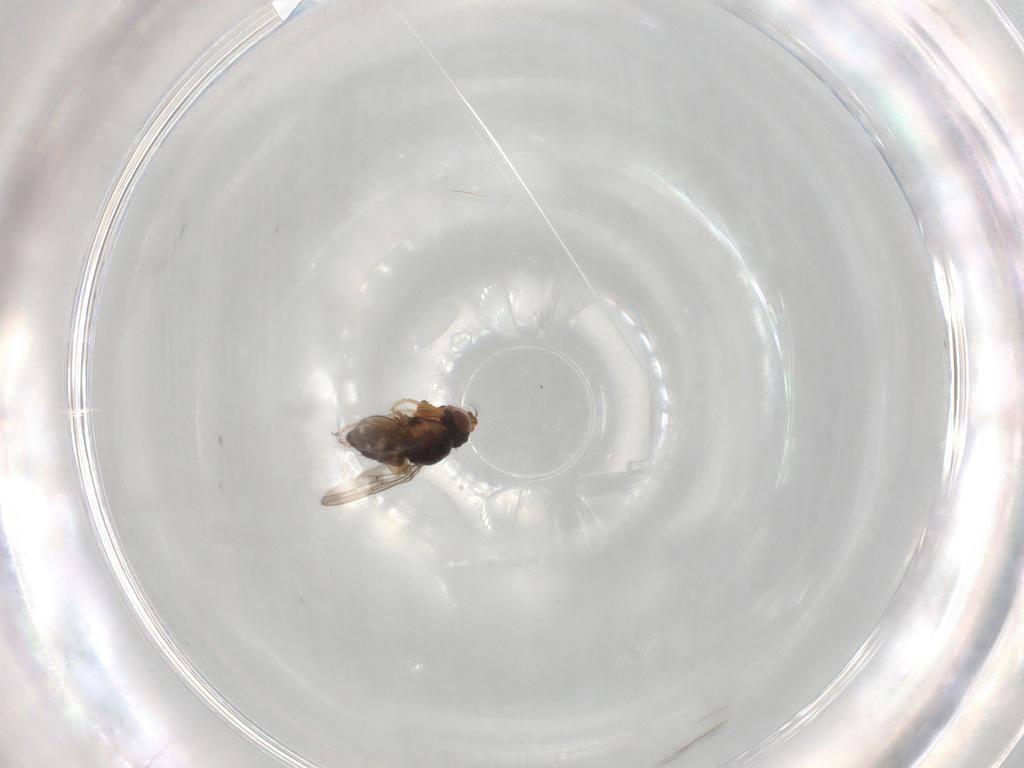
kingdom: Animalia
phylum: Arthropoda
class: Insecta
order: Diptera
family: Ephydridae
